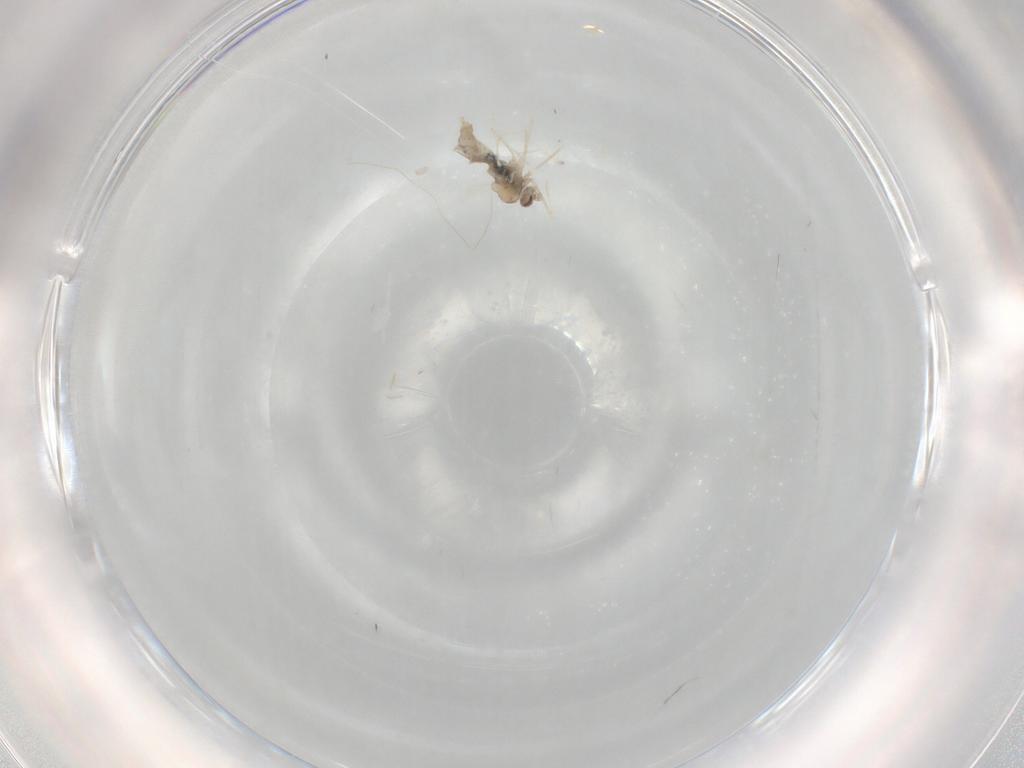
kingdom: Animalia
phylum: Arthropoda
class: Insecta
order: Diptera
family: Cecidomyiidae
